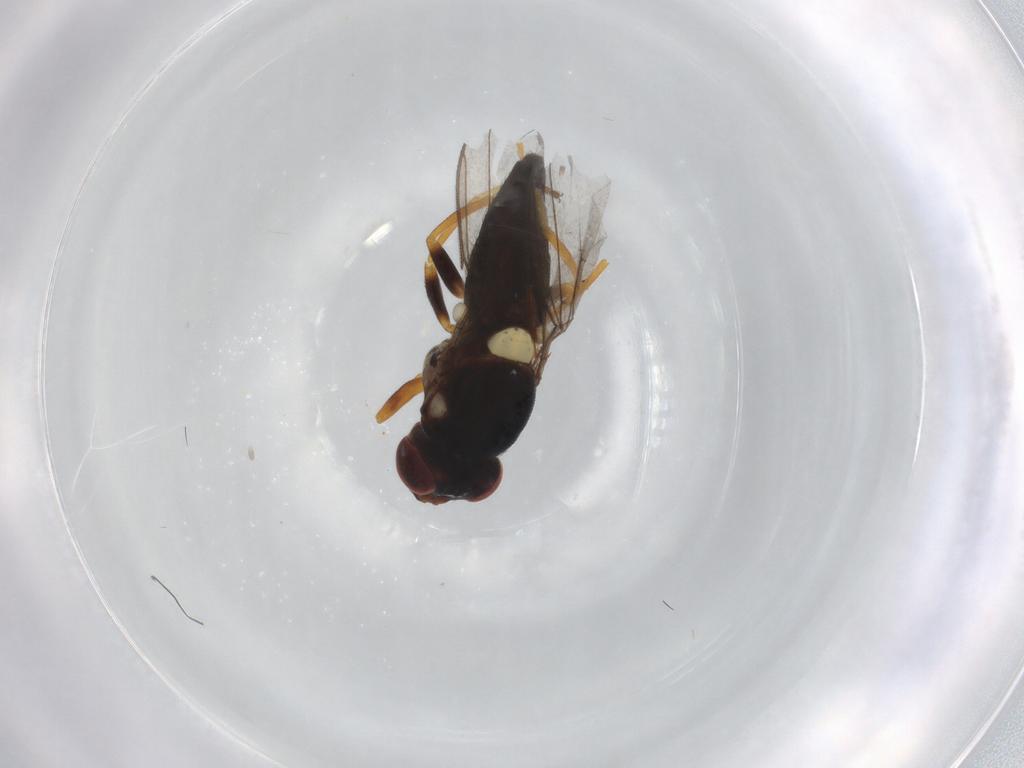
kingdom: Animalia
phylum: Arthropoda
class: Insecta
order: Diptera
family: Chloropidae
